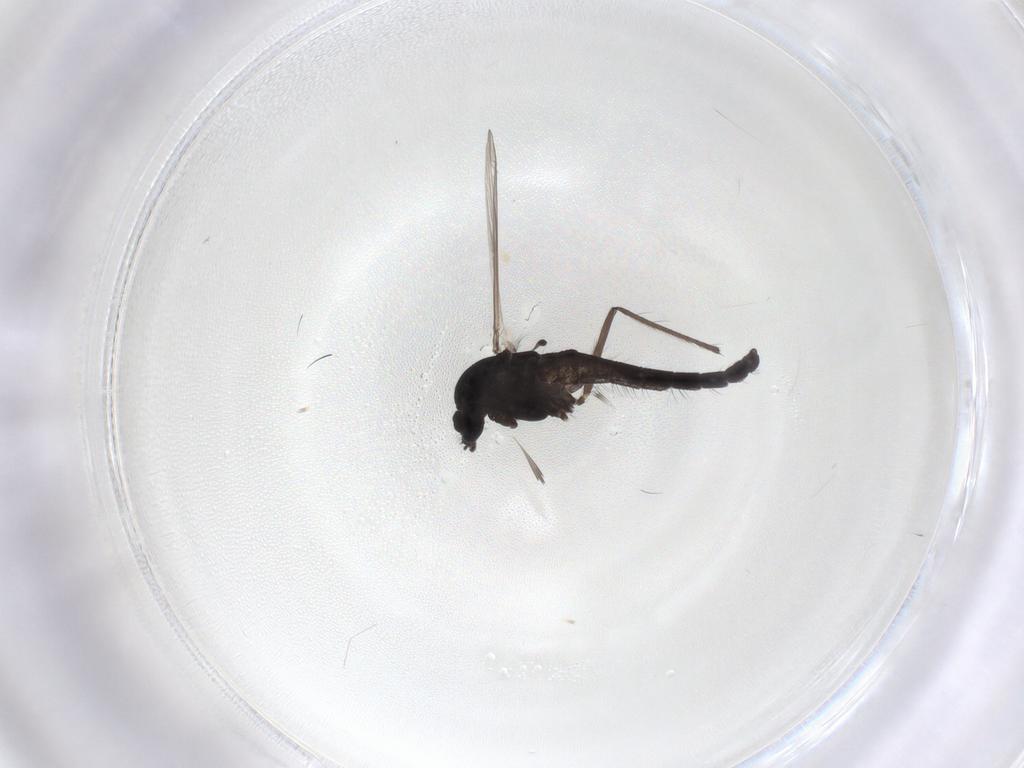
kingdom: Animalia
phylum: Arthropoda
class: Insecta
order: Diptera
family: Chironomidae
